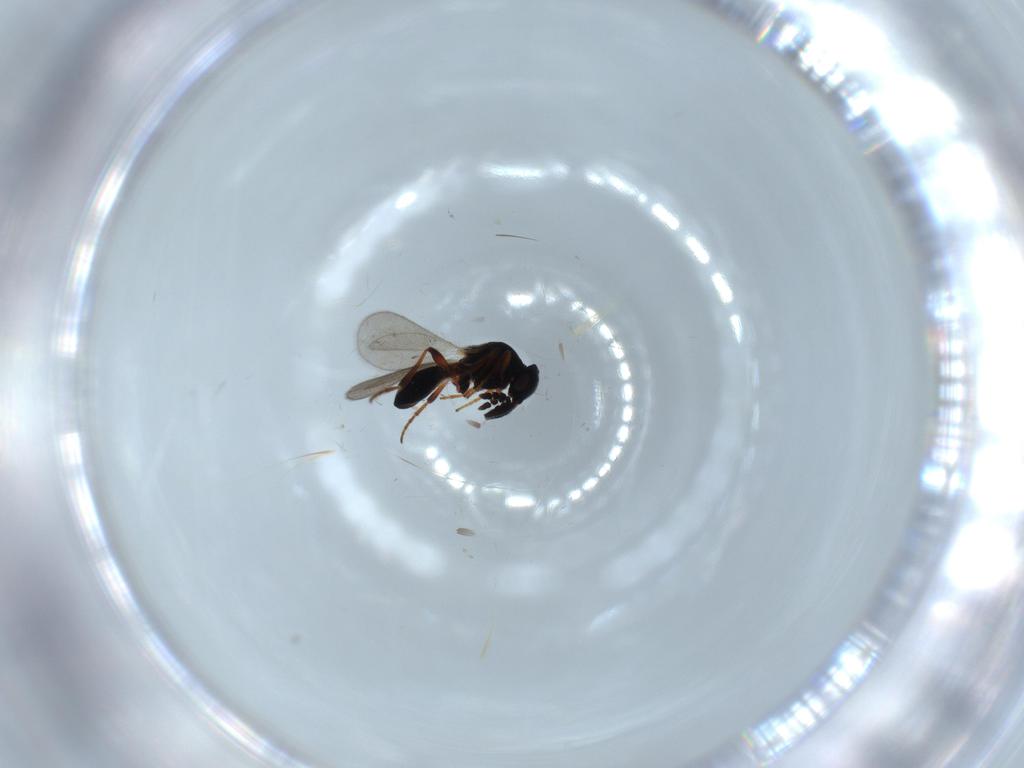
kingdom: Animalia
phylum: Arthropoda
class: Insecta
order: Hymenoptera
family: Platygastridae
